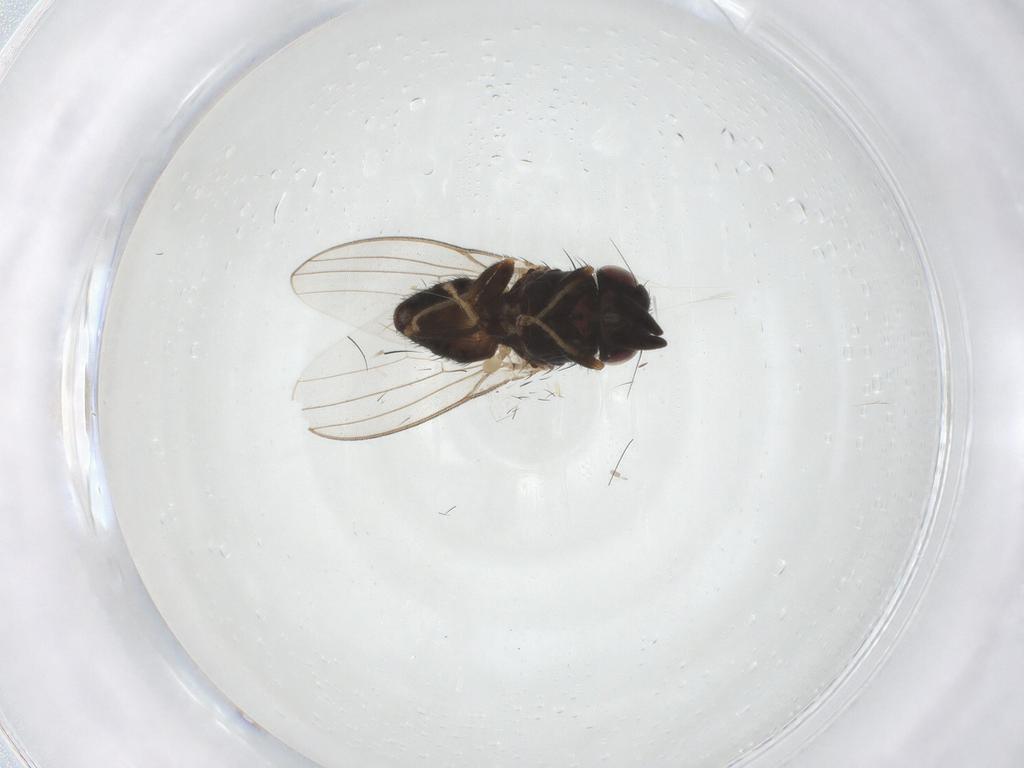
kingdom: Animalia
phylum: Arthropoda
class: Insecta
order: Diptera
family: Milichiidae
